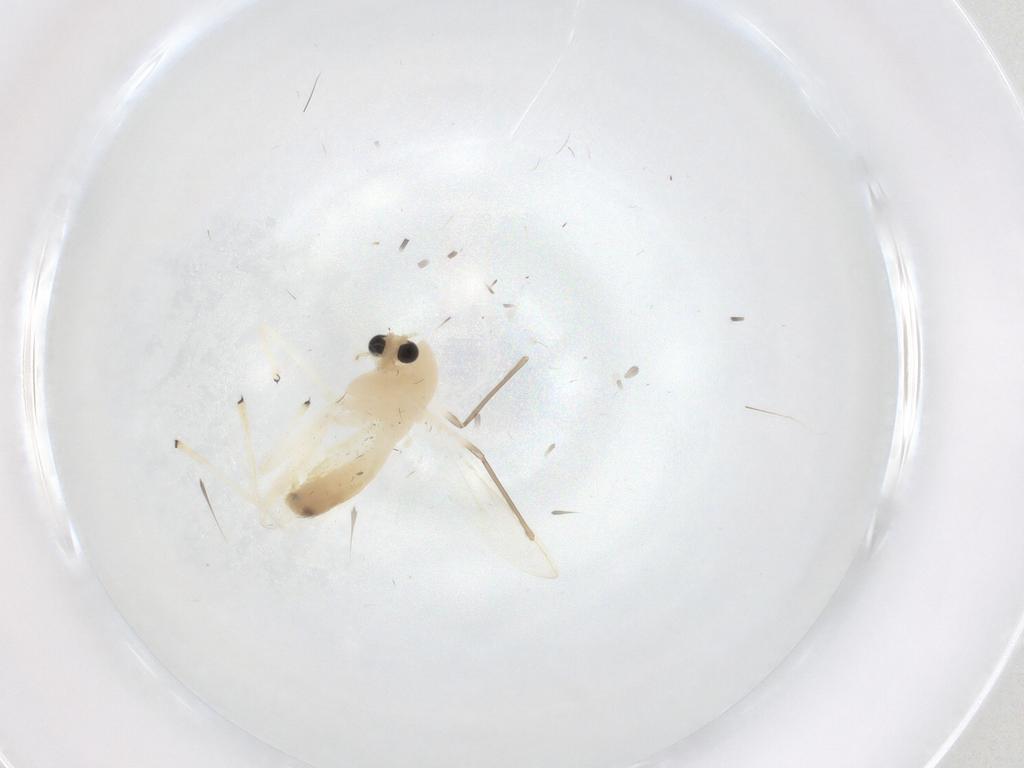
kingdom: Animalia
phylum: Arthropoda
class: Insecta
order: Diptera
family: Chironomidae
